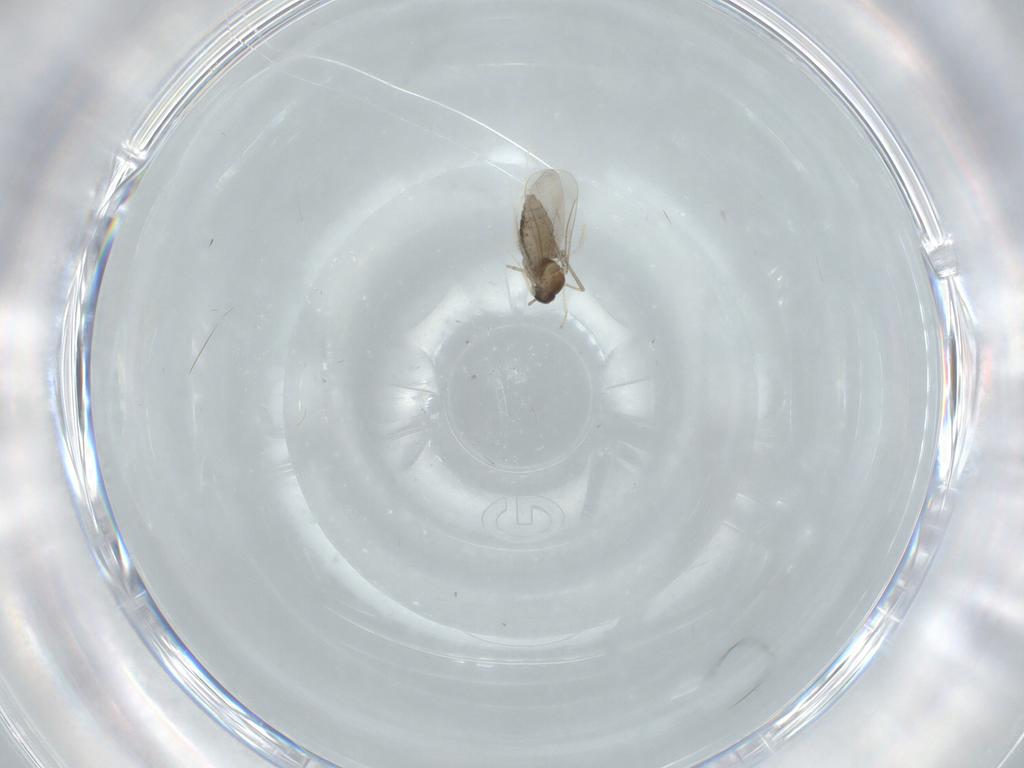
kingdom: Animalia
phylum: Arthropoda
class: Insecta
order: Diptera
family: Cecidomyiidae
